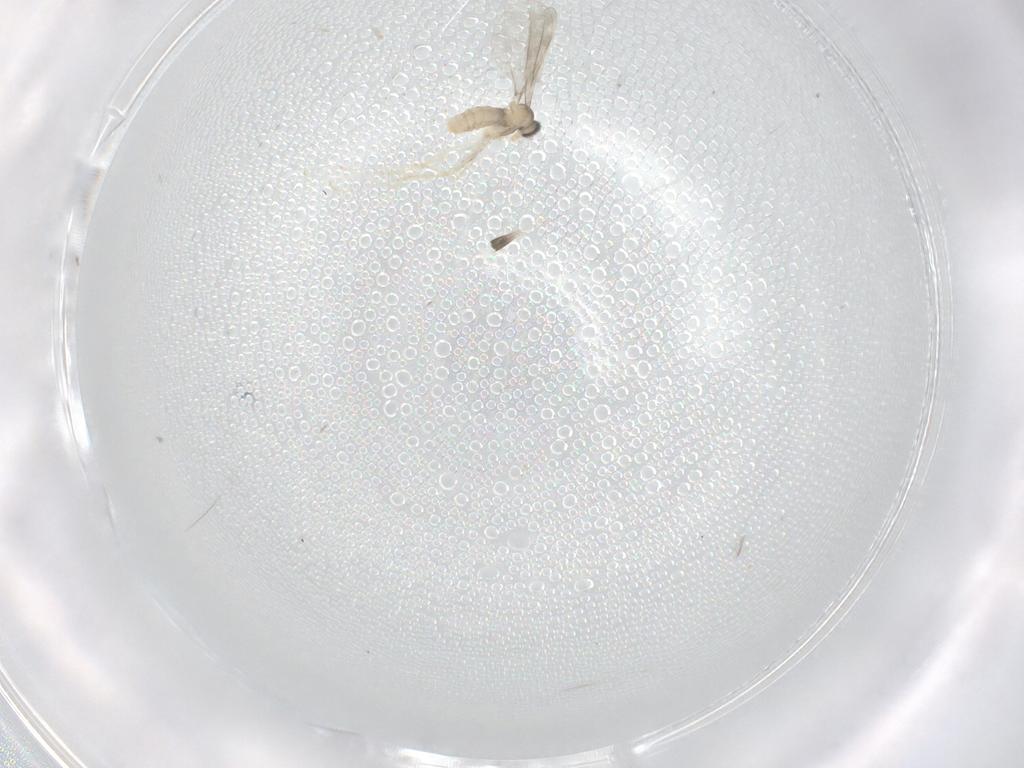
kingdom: Animalia
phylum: Arthropoda
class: Insecta
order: Diptera
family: Cecidomyiidae
